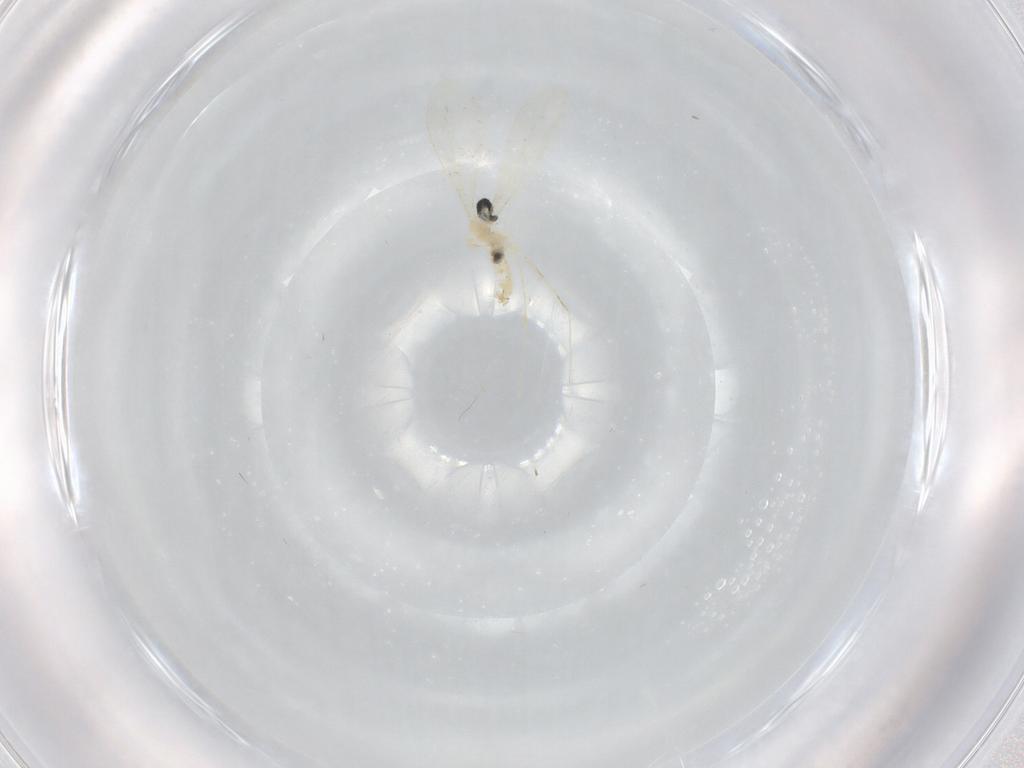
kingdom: Animalia
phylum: Arthropoda
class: Insecta
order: Diptera
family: Cecidomyiidae
